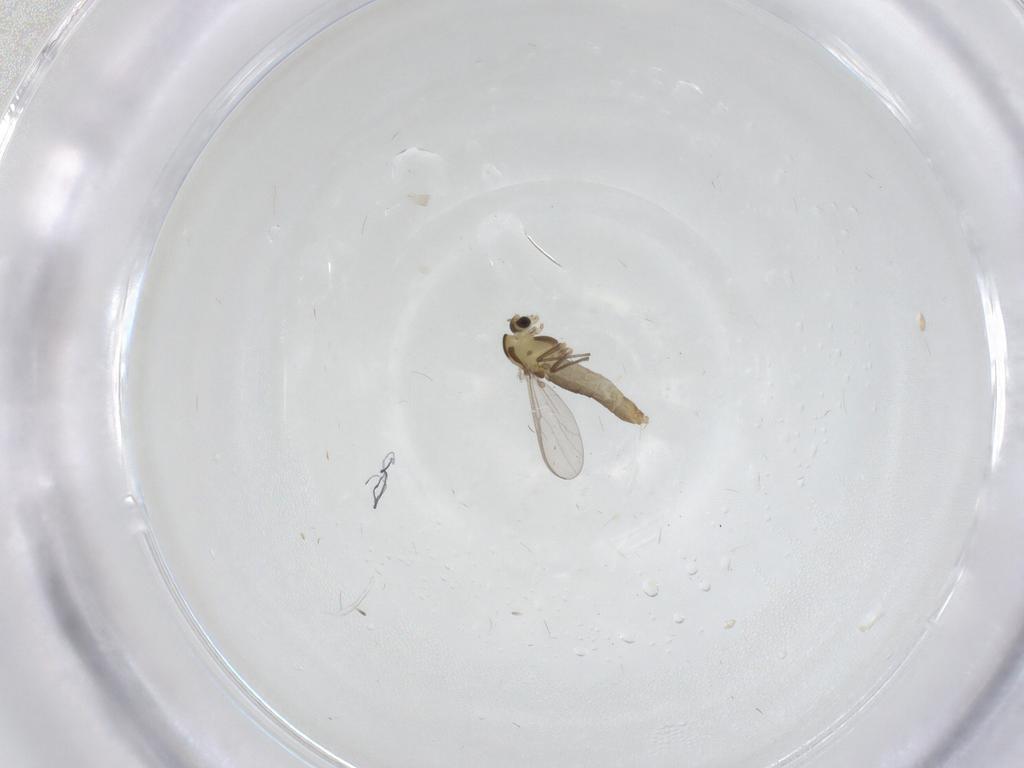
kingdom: Animalia
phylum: Arthropoda
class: Insecta
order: Diptera
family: Chironomidae
